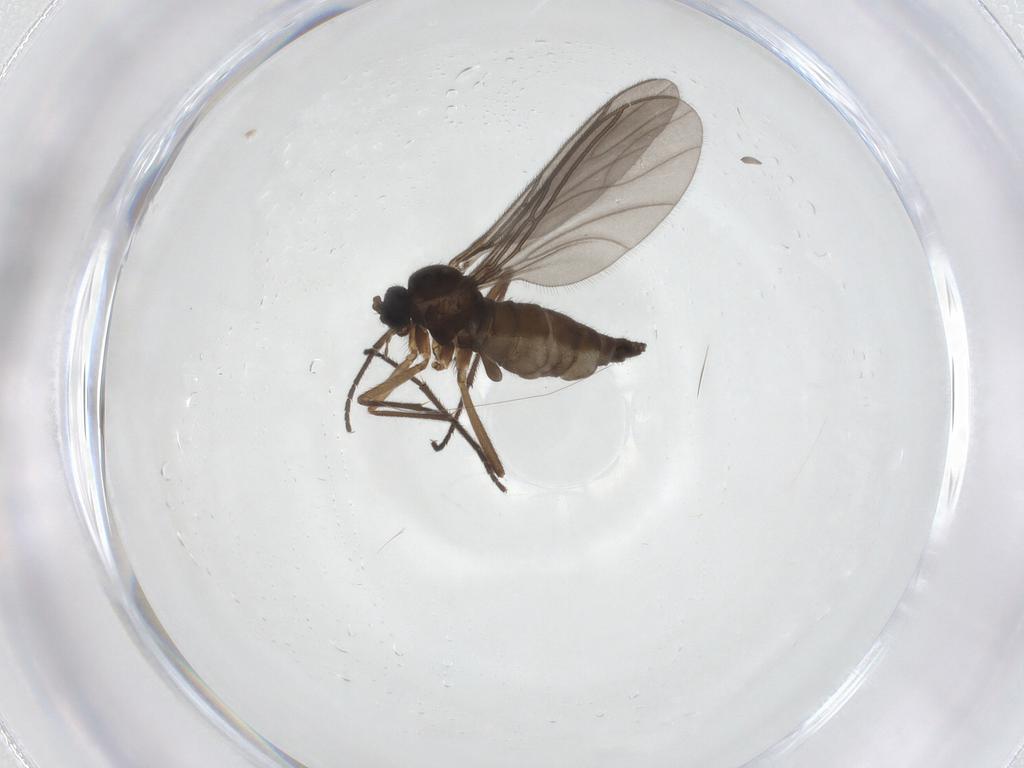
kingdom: Animalia
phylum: Arthropoda
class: Insecta
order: Diptera
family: Sciaridae
